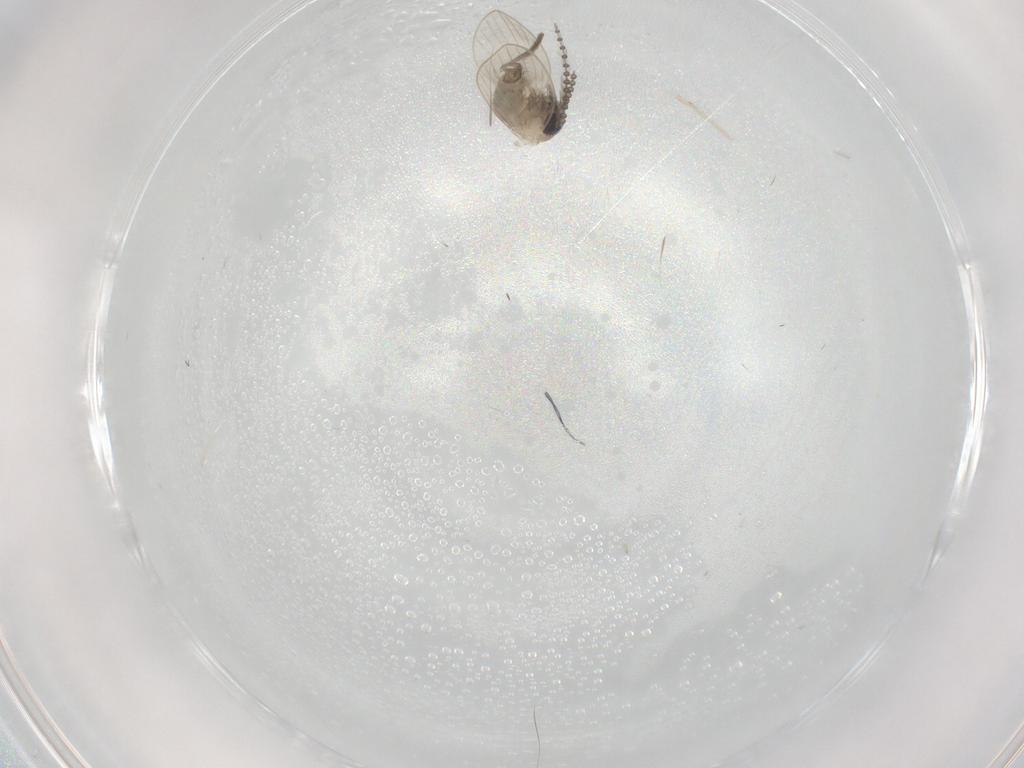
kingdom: Animalia
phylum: Arthropoda
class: Insecta
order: Diptera
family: Psychodidae
